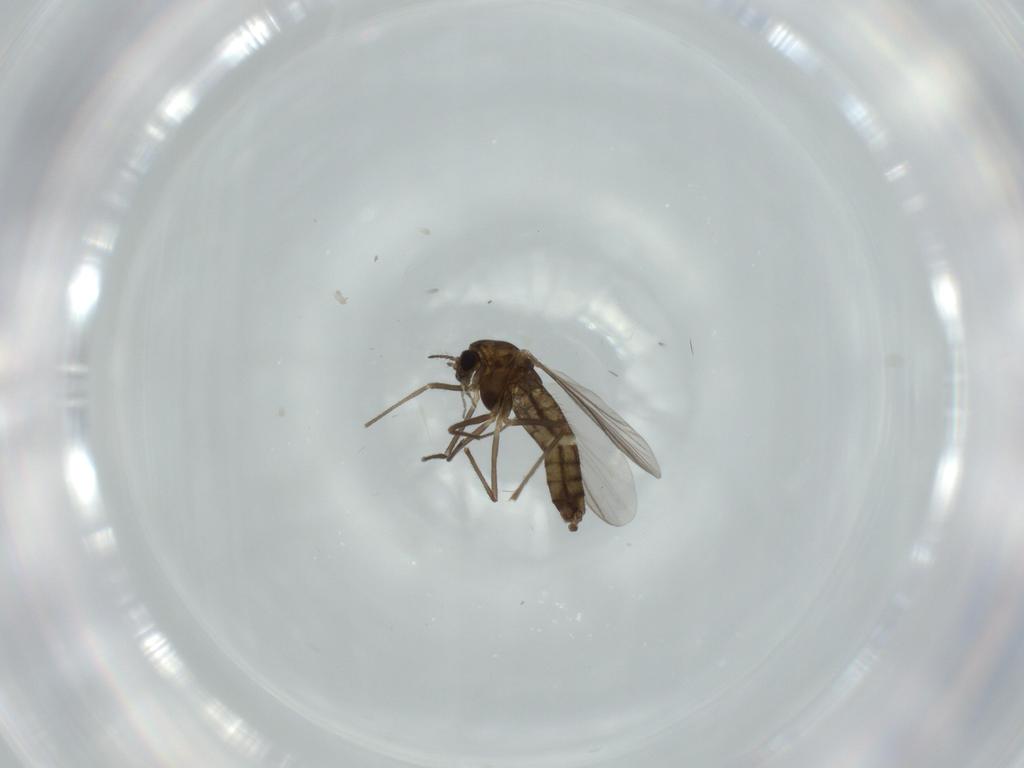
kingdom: Animalia
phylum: Arthropoda
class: Insecta
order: Diptera
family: Chironomidae
